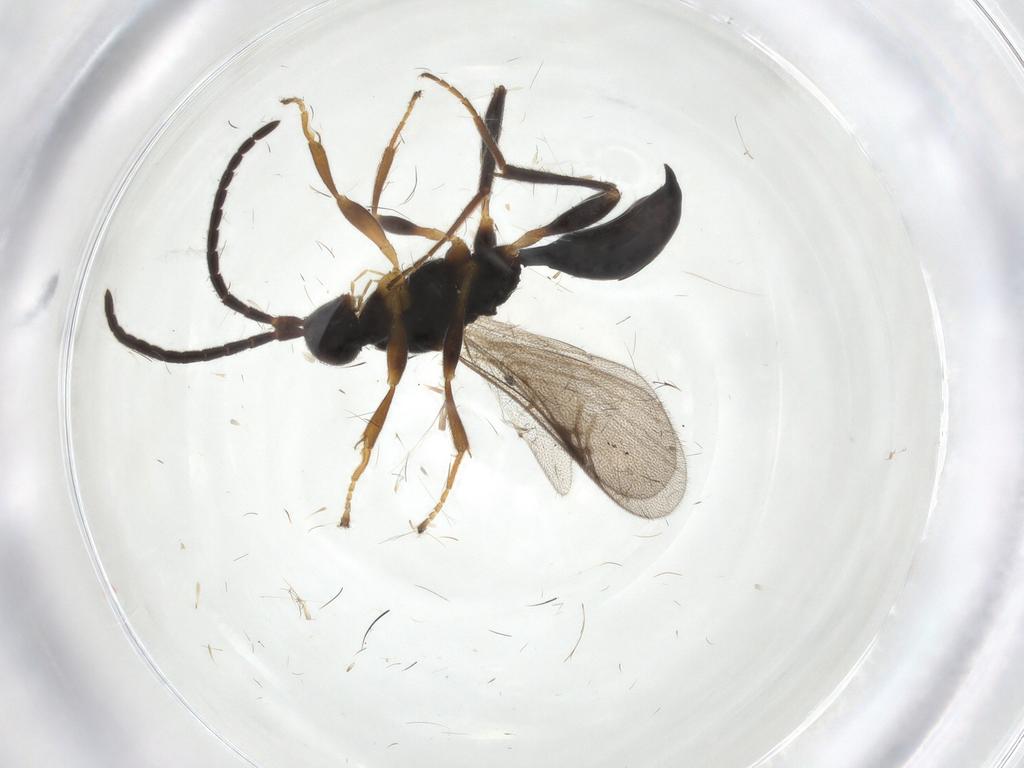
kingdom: Animalia
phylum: Arthropoda
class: Insecta
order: Hymenoptera
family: Proctotrupidae
